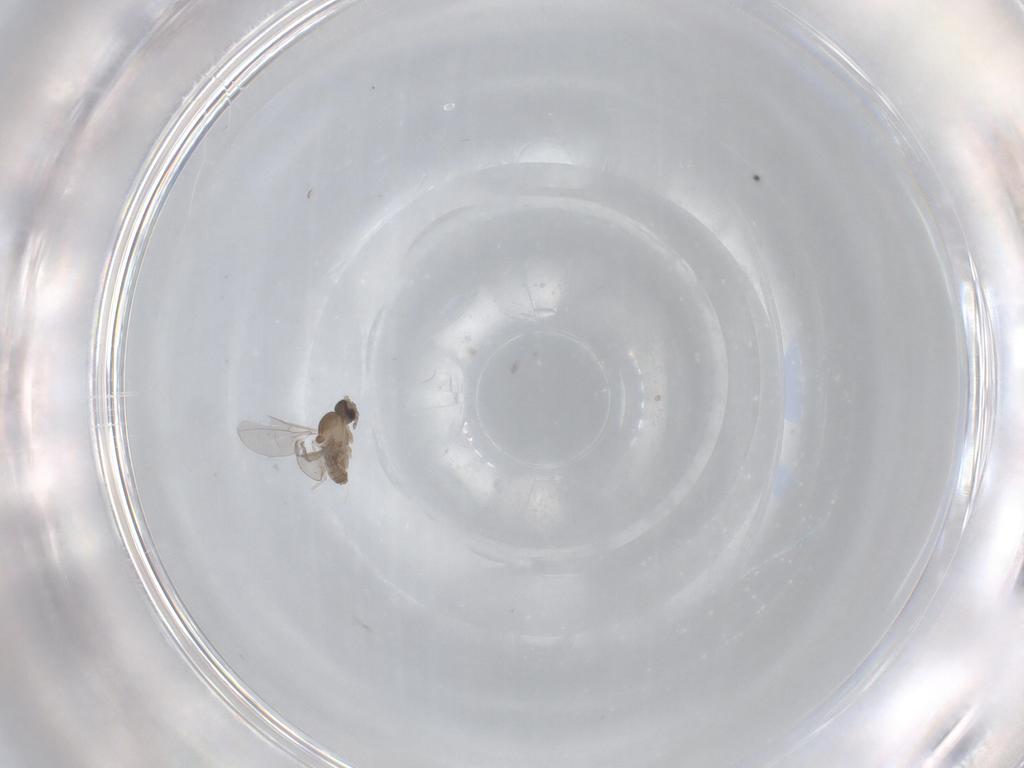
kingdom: Animalia
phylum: Arthropoda
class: Insecta
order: Diptera
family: Cecidomyiidae
